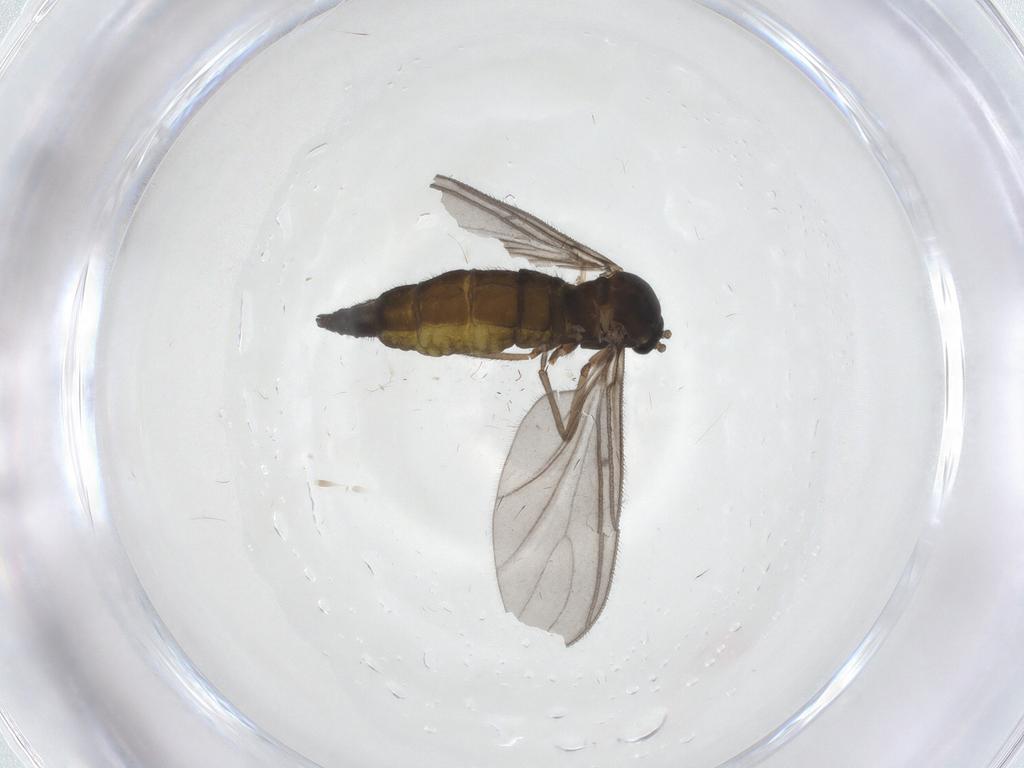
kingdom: Animalia
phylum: Arthropoda
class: Insecta
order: Diptera
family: Sciaridae
